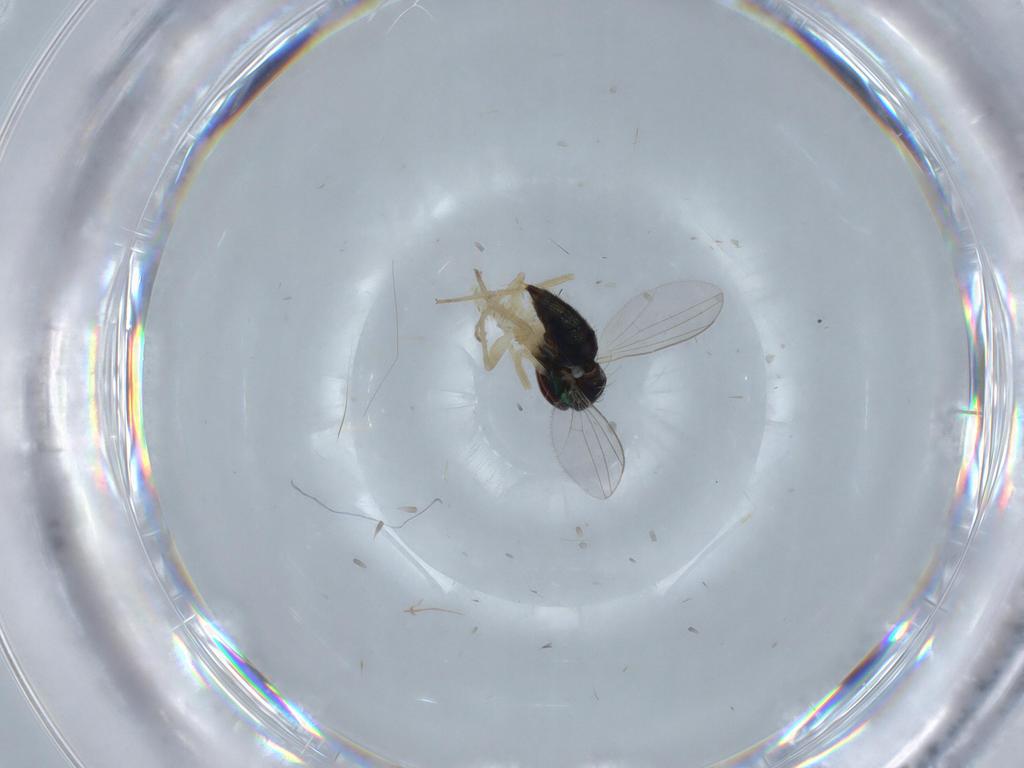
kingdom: Animalia
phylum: Arthropoda
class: Insecta
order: Diptera
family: Dolichopodidae
